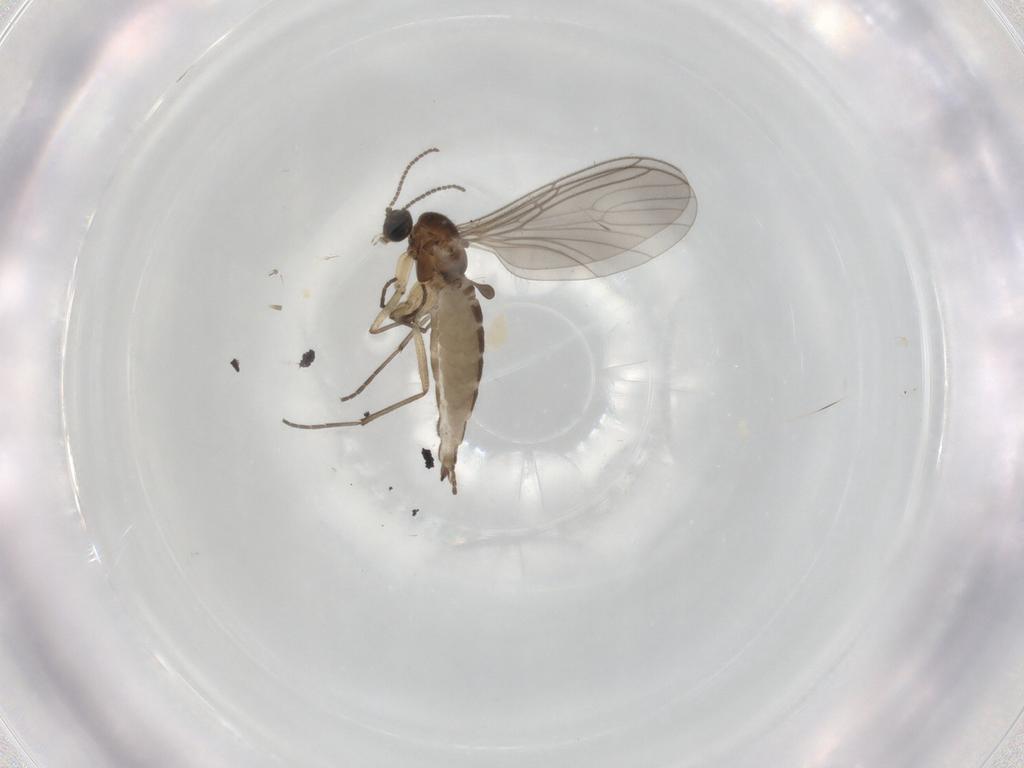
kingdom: Animalia
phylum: Arthropoda
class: Insecta
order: Diptera
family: Sciaridae
